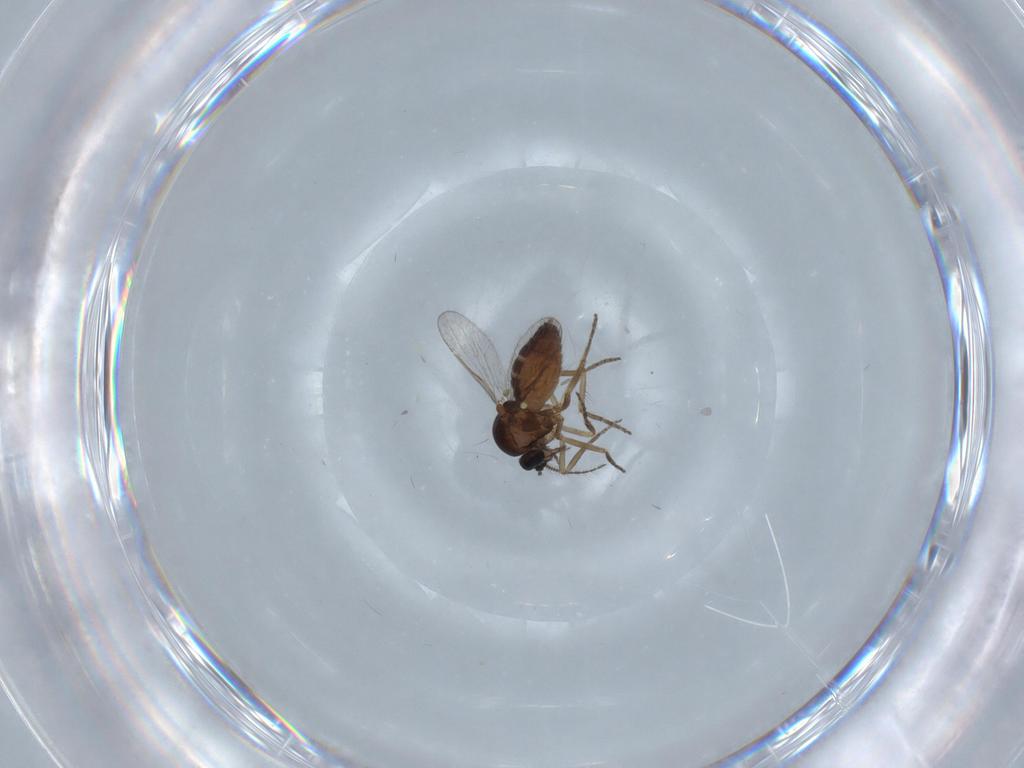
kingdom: Animalia
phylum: Arthropoda
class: Insecta
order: Diptera
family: Ceratopogonidae
